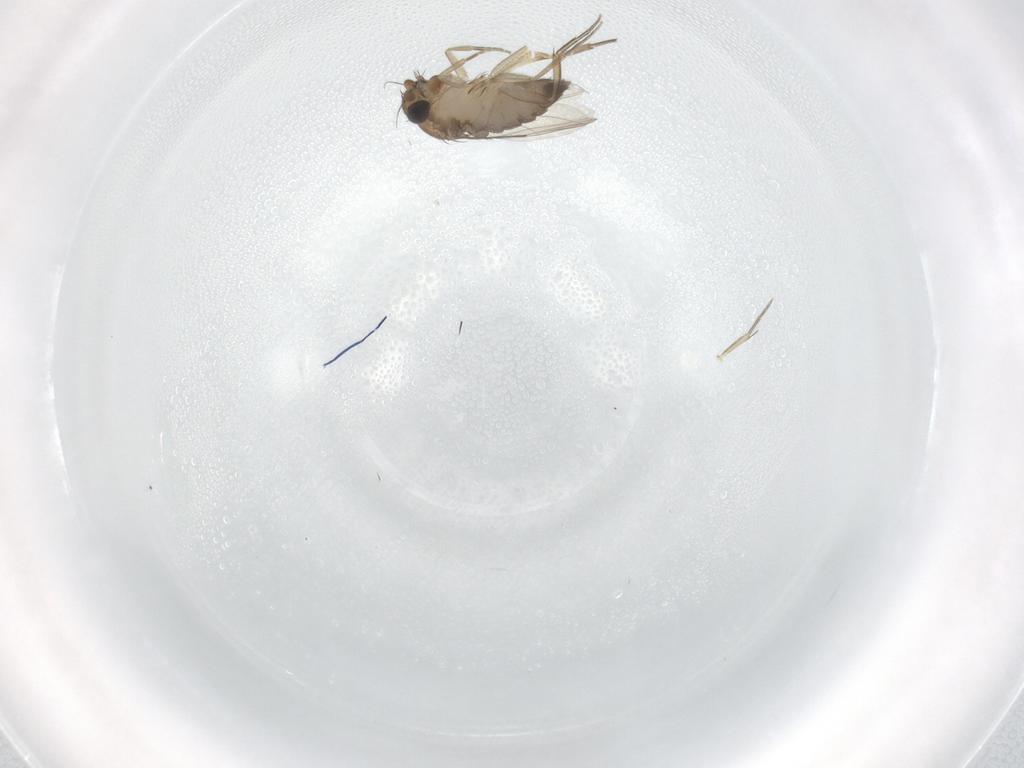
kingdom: Animalia
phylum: Arthropoda
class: Insecta
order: Diptera
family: Phoridae
